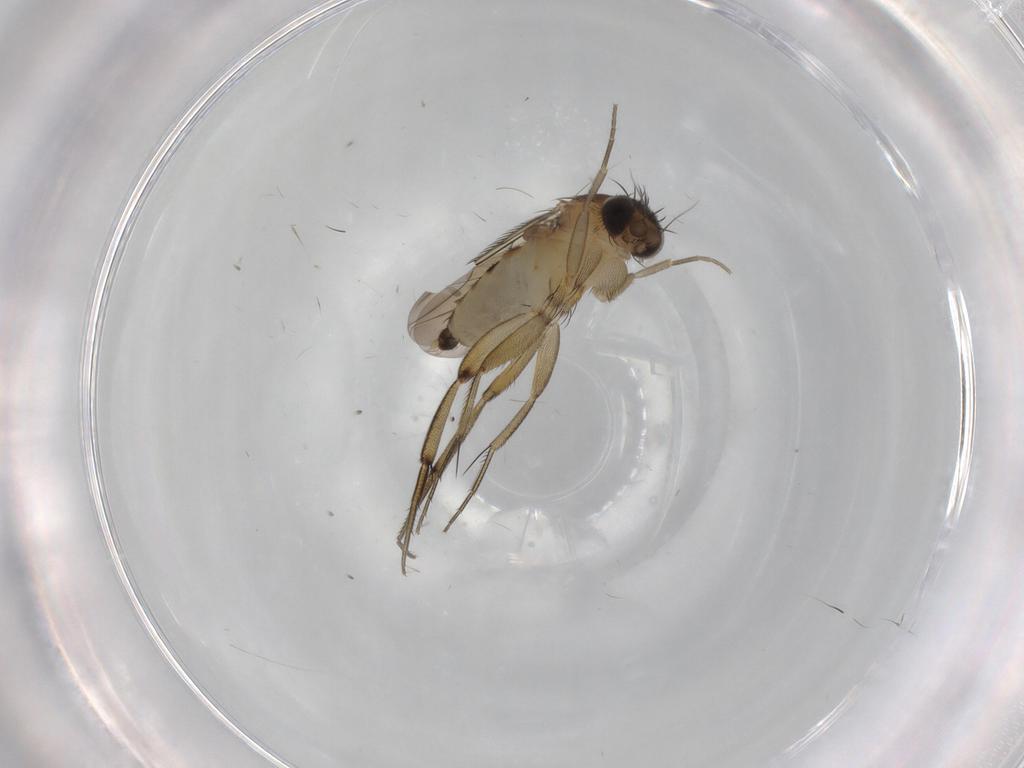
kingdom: Animalia
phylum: Arthropoda
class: Insecta
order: Diptera
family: Phoridae
